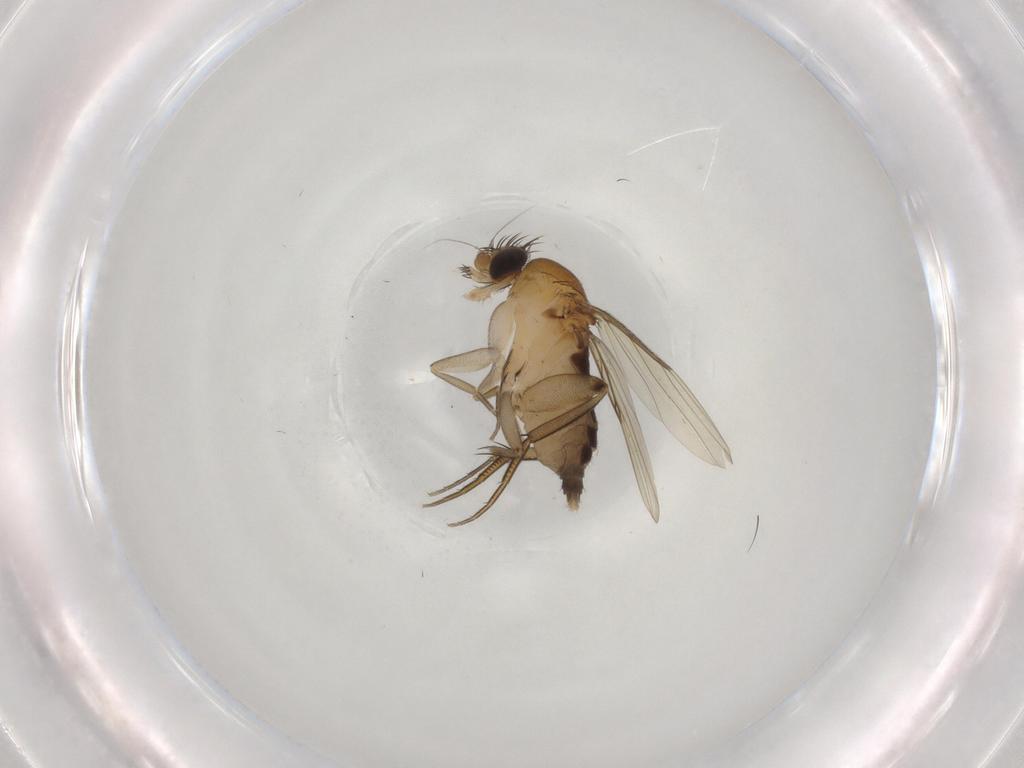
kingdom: Animalia
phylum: Arthropoda
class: Insecta
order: Diptera
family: Phoridae
